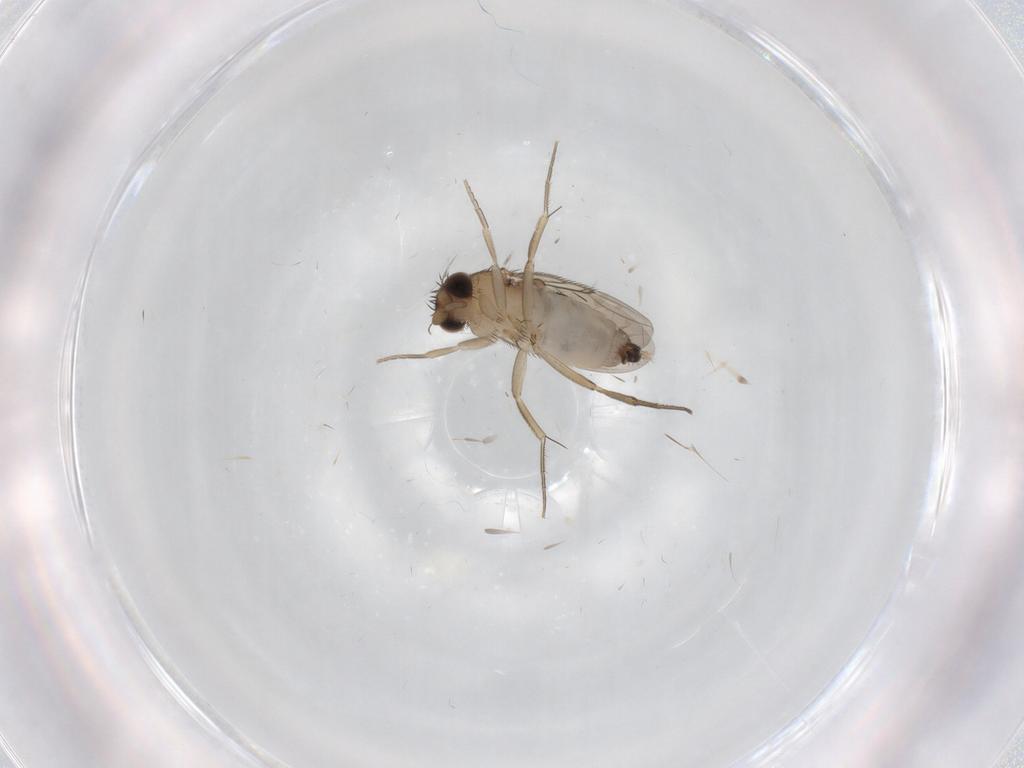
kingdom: Animalia
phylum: Arthropoda
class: Insecta
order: Diptera
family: Phoridae
